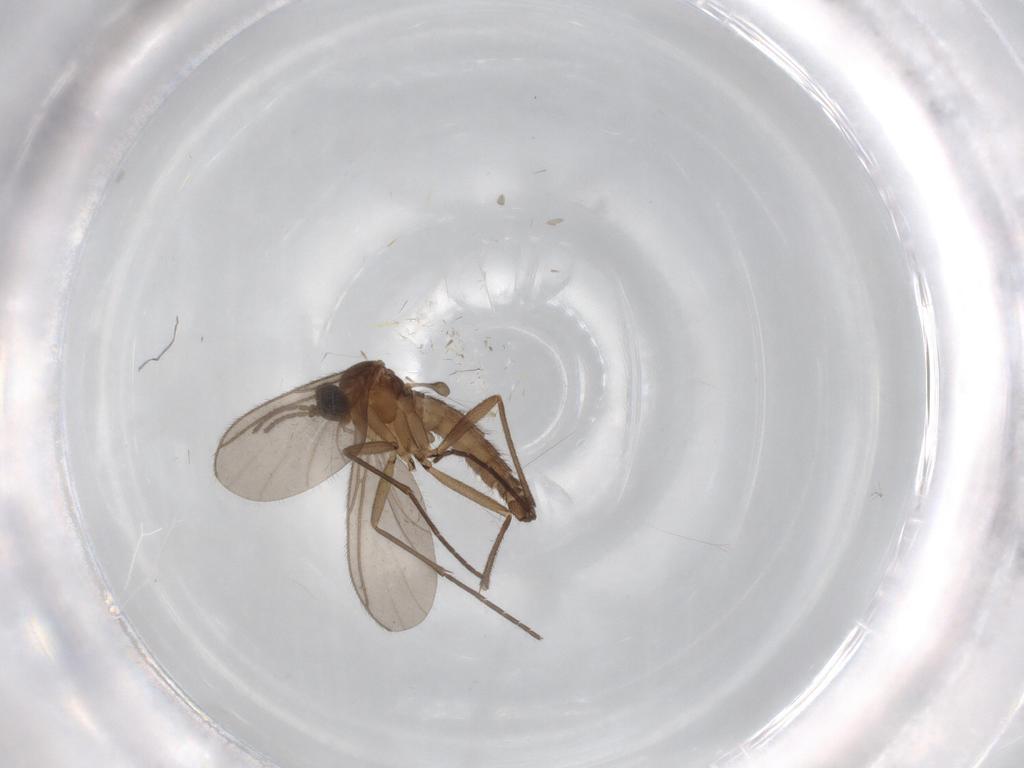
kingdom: Animalia
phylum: Arthropoda
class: Insecta
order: Diptera
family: Sciaridae
